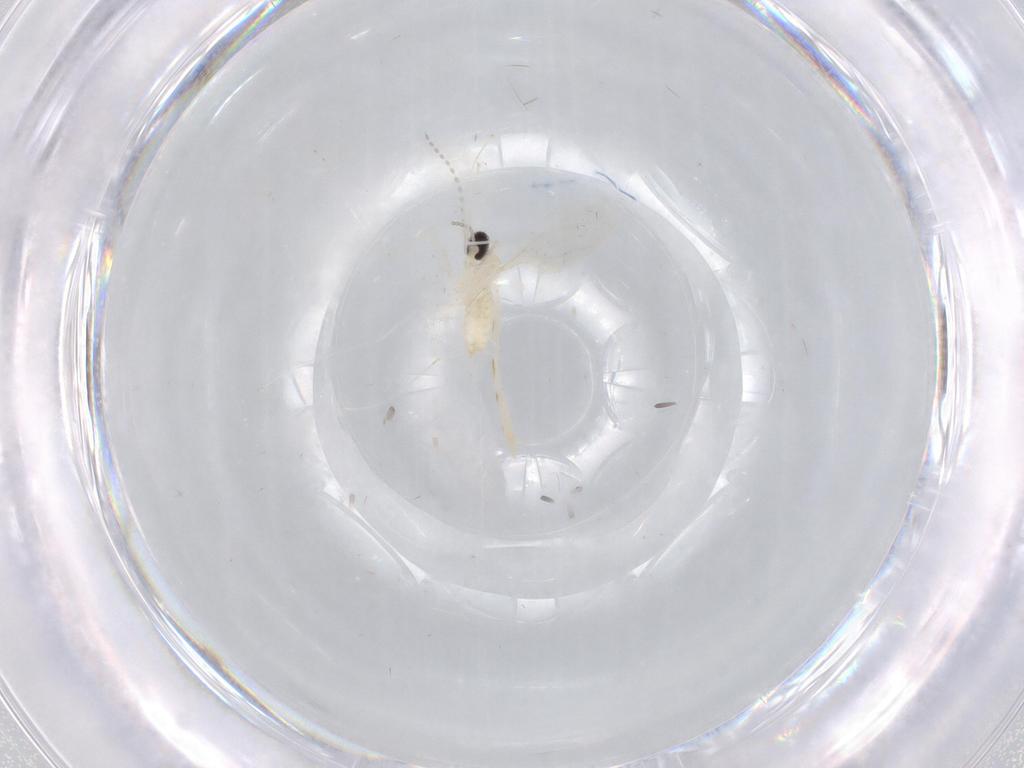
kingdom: Animalia
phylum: Arthropoda
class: Insecta
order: Diptera
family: Cecidomyiidae
